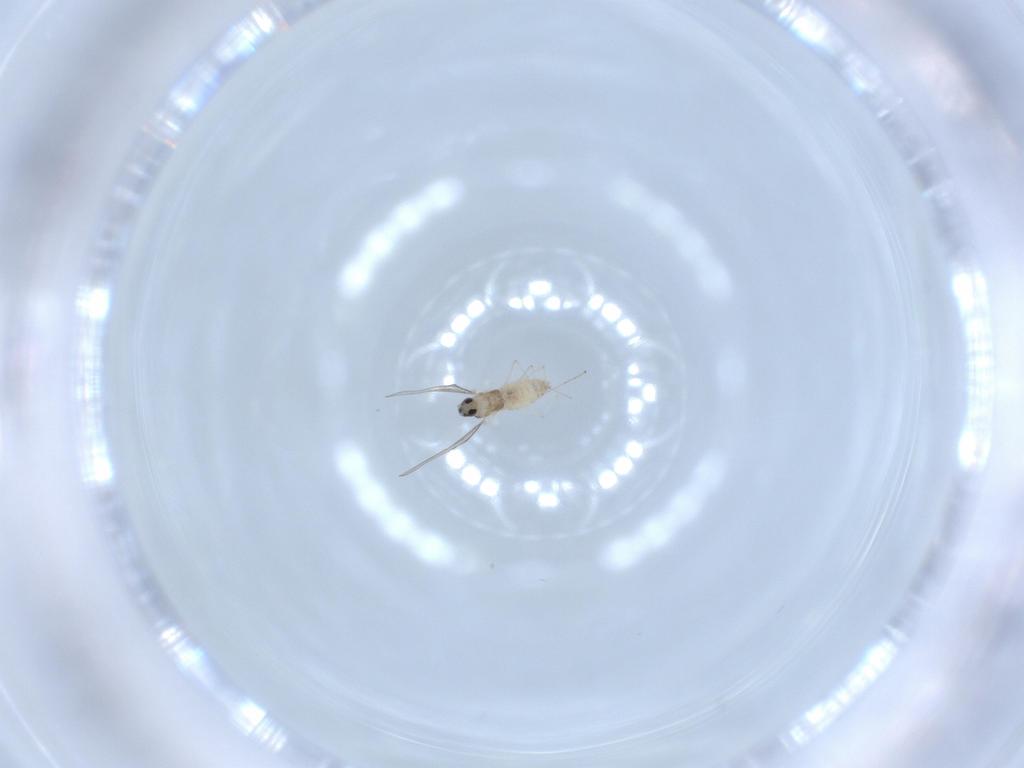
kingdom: Animalia
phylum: Arthropoda
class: Insecta
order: Diptera
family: Cecidomyiidae
